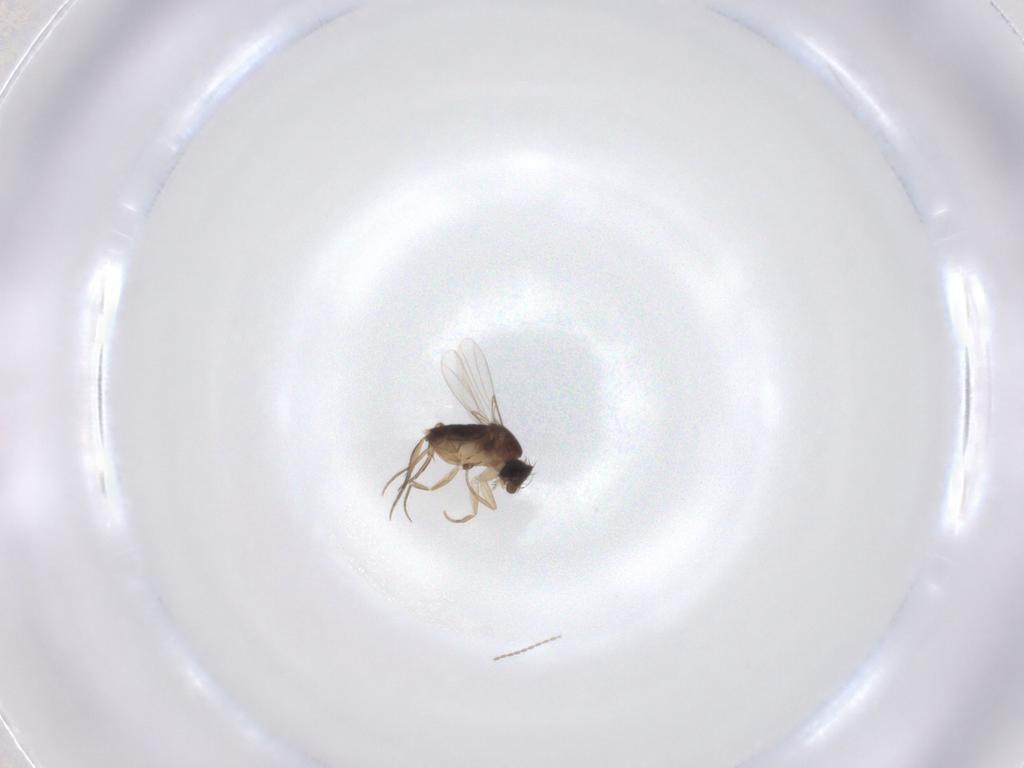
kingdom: Animalia
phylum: Arthropoda
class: Insecta
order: Diptera
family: Phoridae
